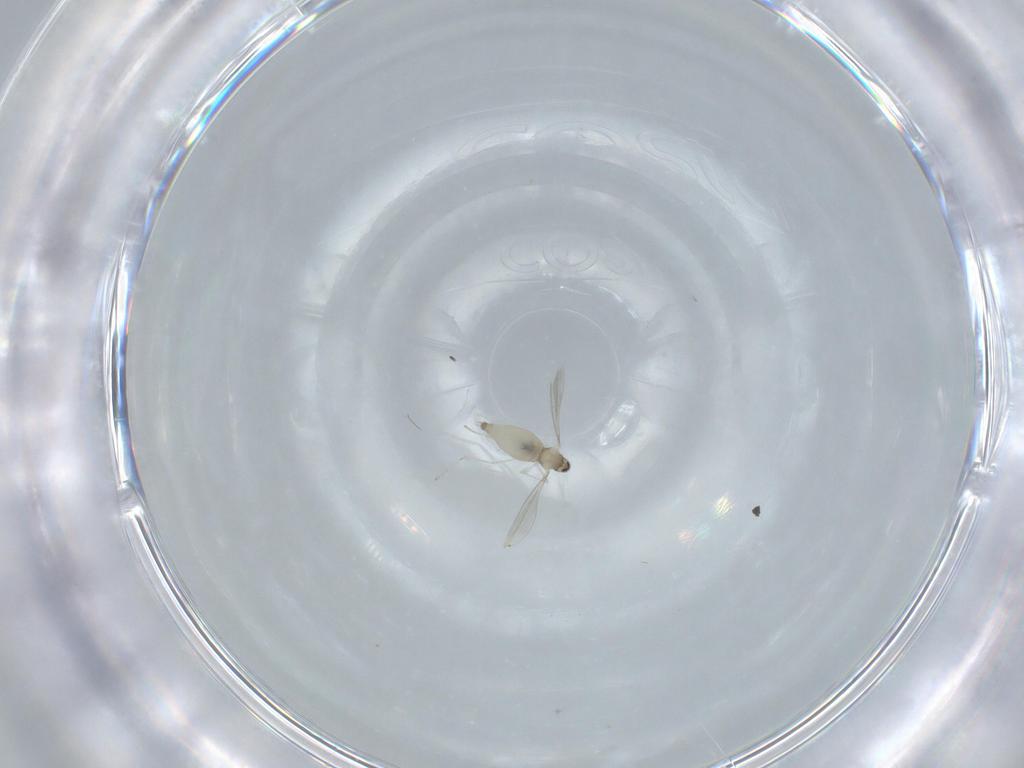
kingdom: Animalia
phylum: Arthropoda
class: Insecta
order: Diptera
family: Cecidomyiidae
